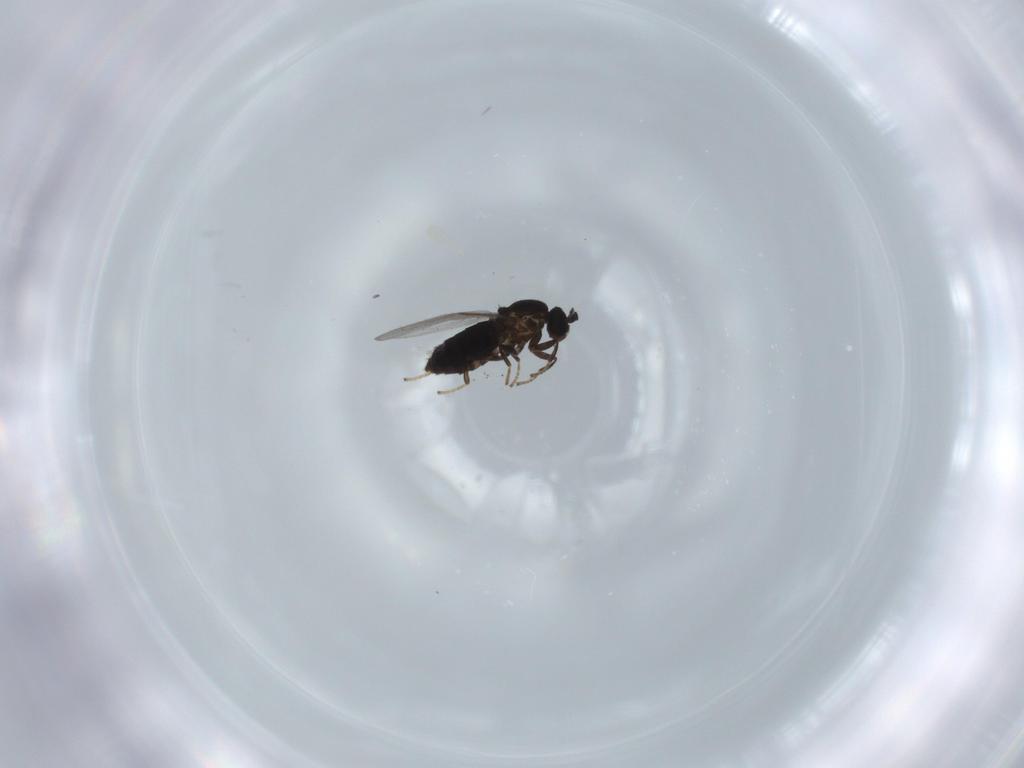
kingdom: Animalia
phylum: Arthropoda
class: Insecta
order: Diptera
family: Scatopsidae
